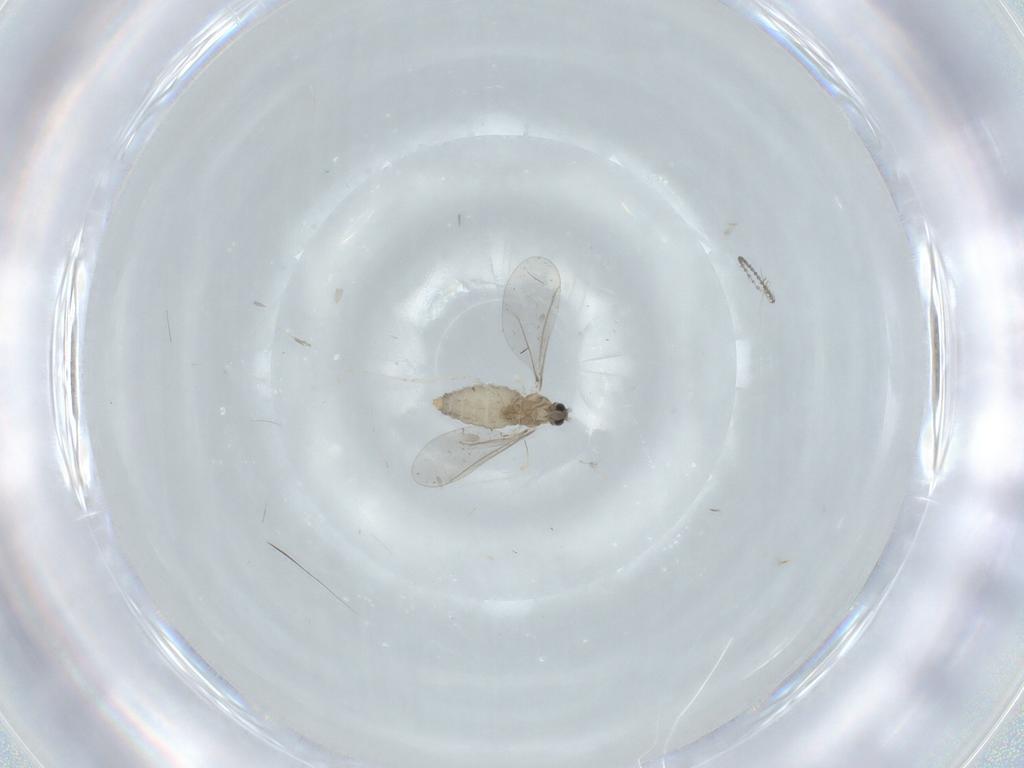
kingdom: Animalia
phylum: Arthropoda
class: Insecta
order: Diptera
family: Cecidomyiidae
